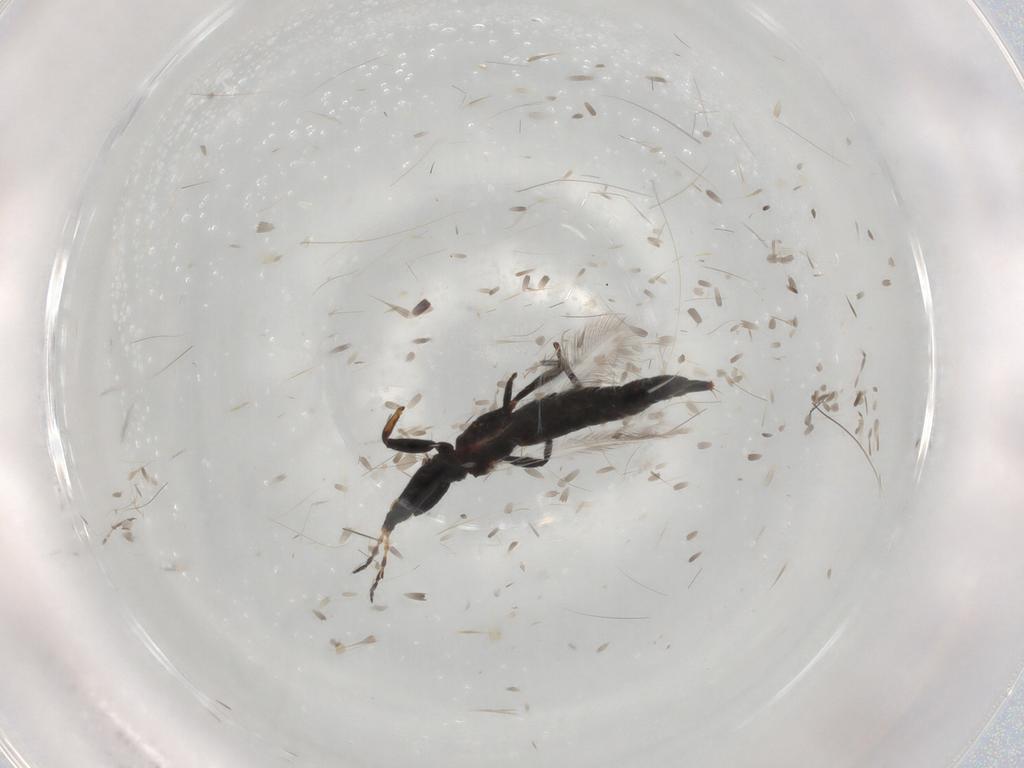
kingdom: Animalia
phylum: Arthropoda
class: Insecta
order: Thysanoptera
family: Phlaeothripidae
